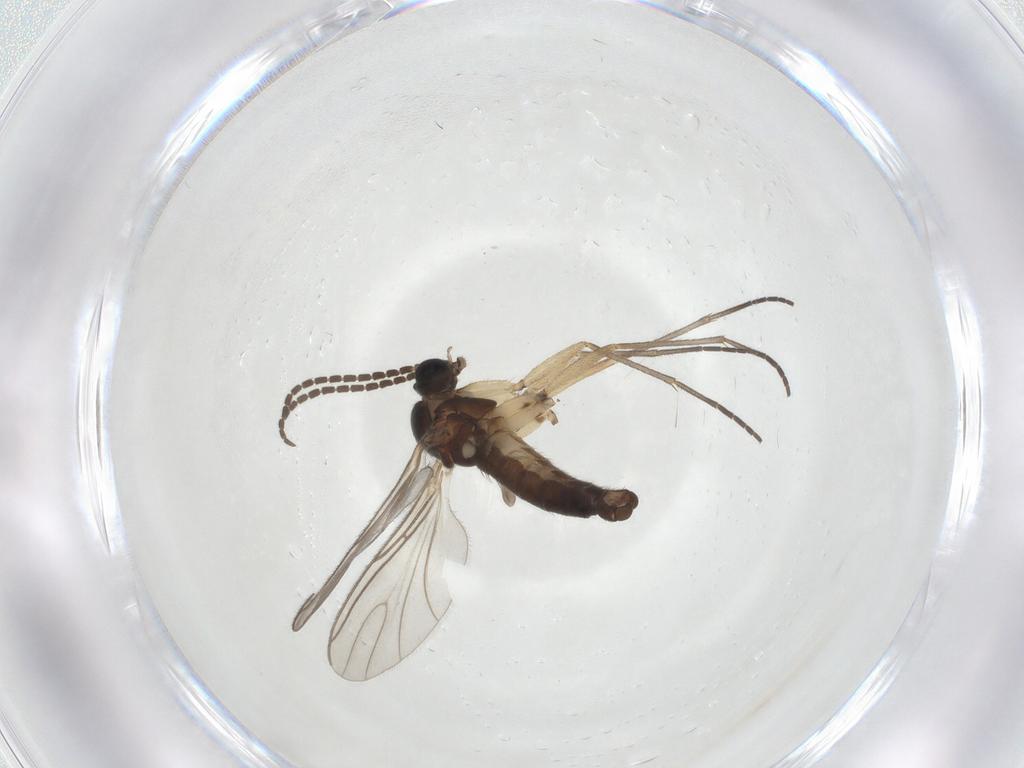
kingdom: Animalia
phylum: Arthropoda
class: Insecta
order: Diptera
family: Sciaridae
